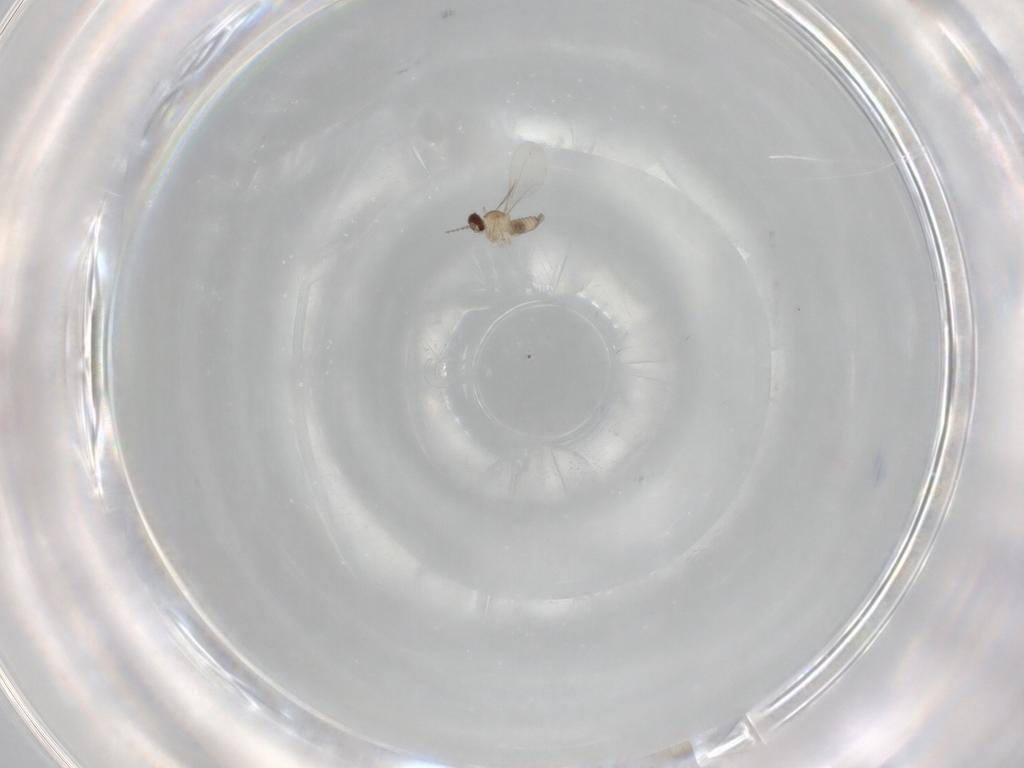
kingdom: Animalia
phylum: Arthropoda
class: Insecta
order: Diptera
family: Cecidomyiidae
